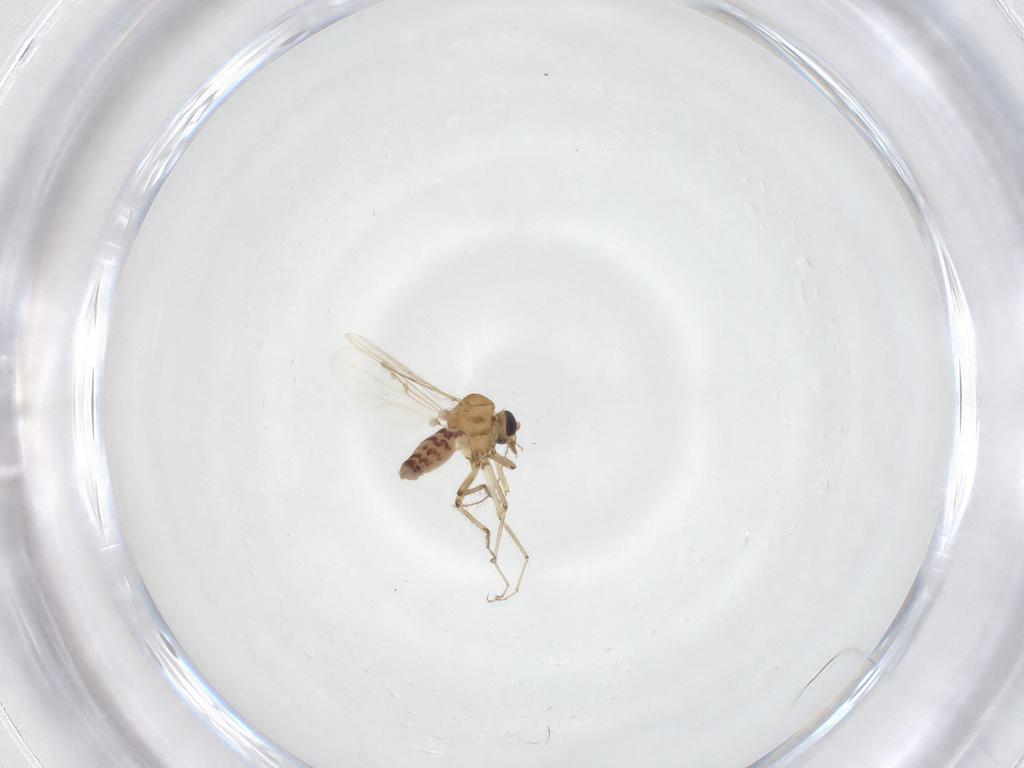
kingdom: Animalia
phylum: Arthropoda
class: Insecta
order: Diptera
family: Ceratopogonidae
